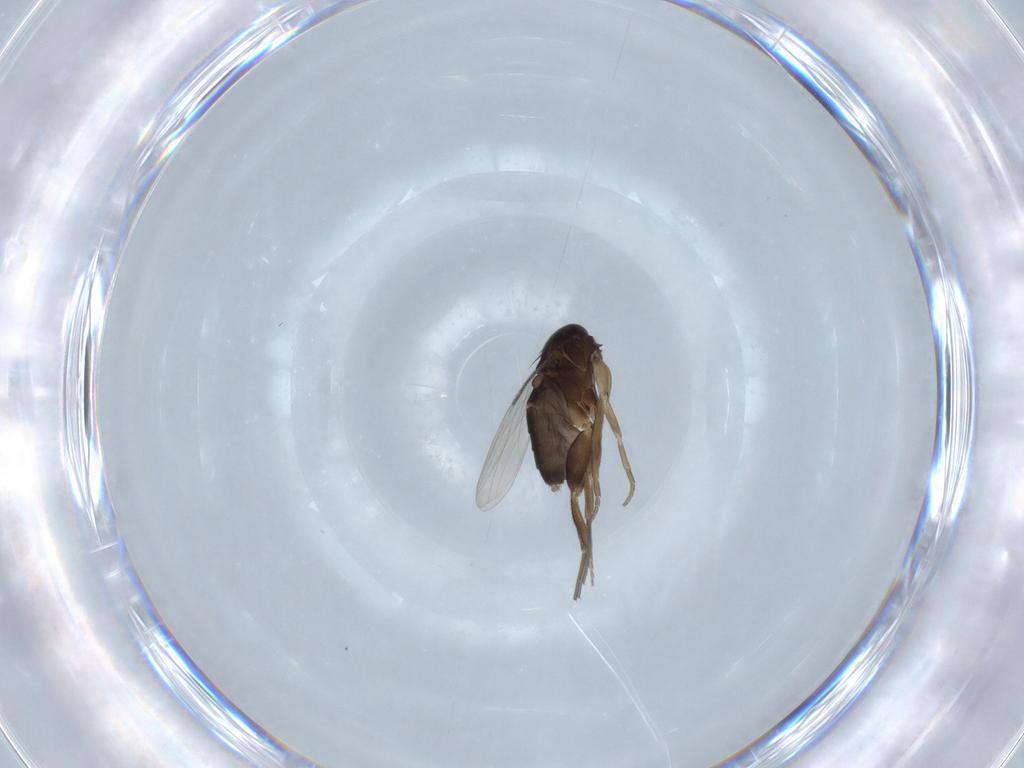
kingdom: Animalia
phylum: Arthropoda
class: Insecta
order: Diptera
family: Phoridae
